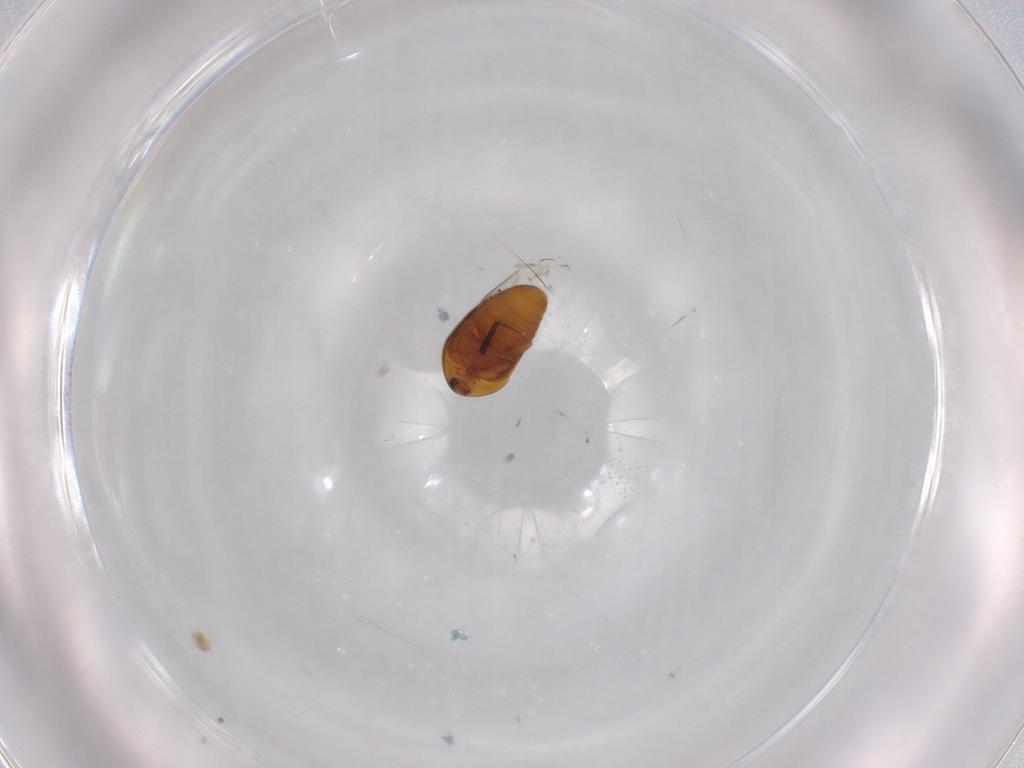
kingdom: Animalia
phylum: Arthropoda
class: Insecta
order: Coleoptera
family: Corylophidae
